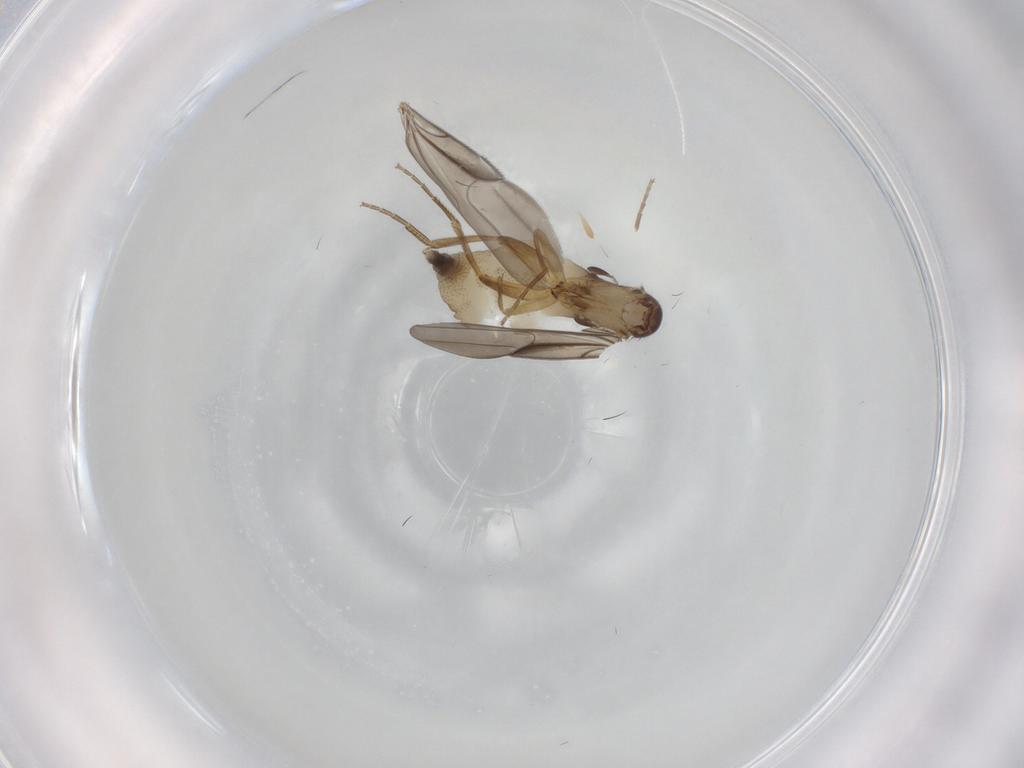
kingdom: Animalia
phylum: Arthropoda
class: Insecta
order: Diptera
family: Phoridae
